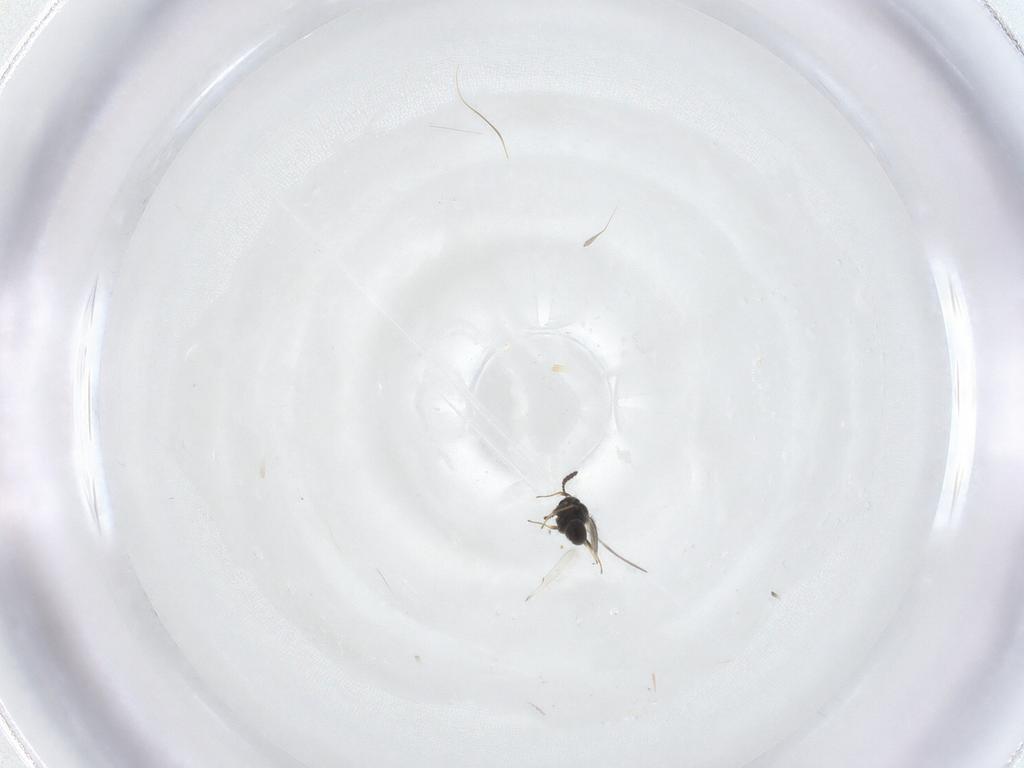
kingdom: Animalia
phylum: Arthropoda
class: Insecta
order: Hymenoptera
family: Scelionidae
